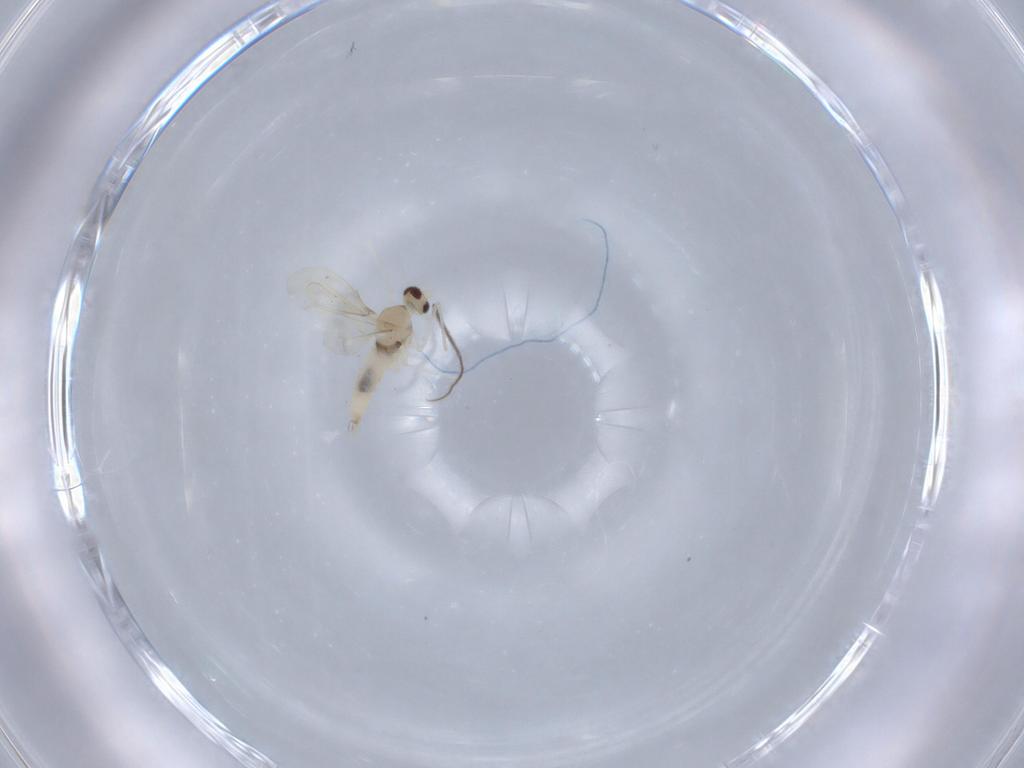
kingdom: Animalia
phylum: Arthropoda
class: Insecta
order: Diptera
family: Cecidomyiidae
